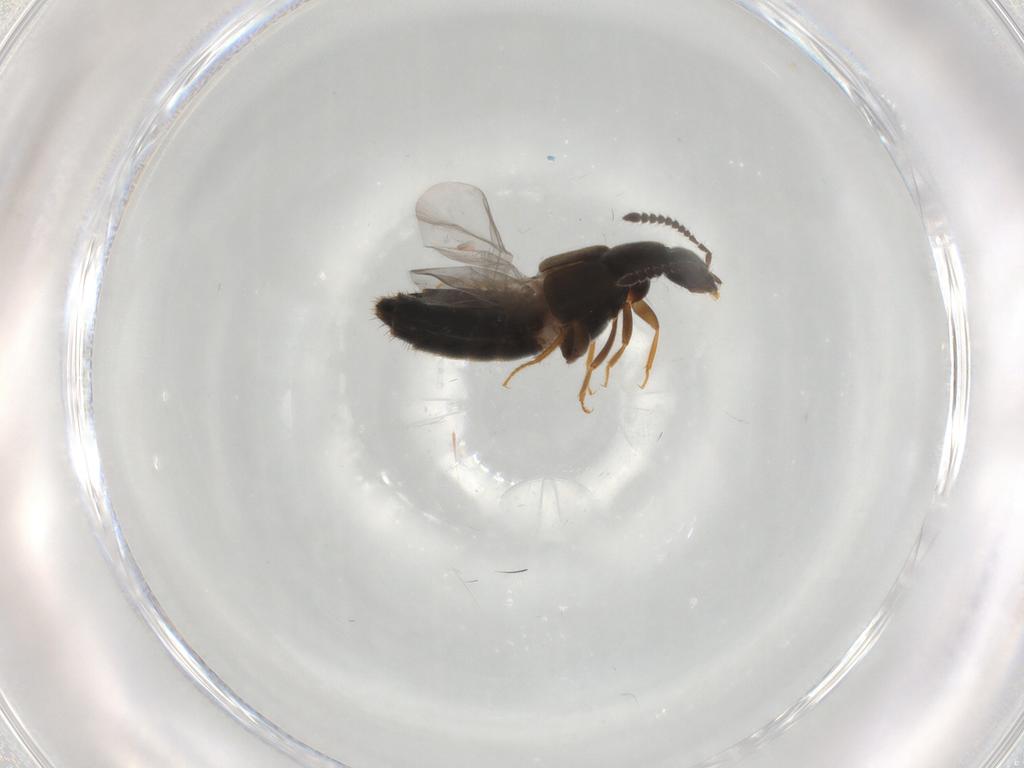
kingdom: Animalia
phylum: Arthropoda
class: Insecta
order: Coleoptera
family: Staphylinidae
